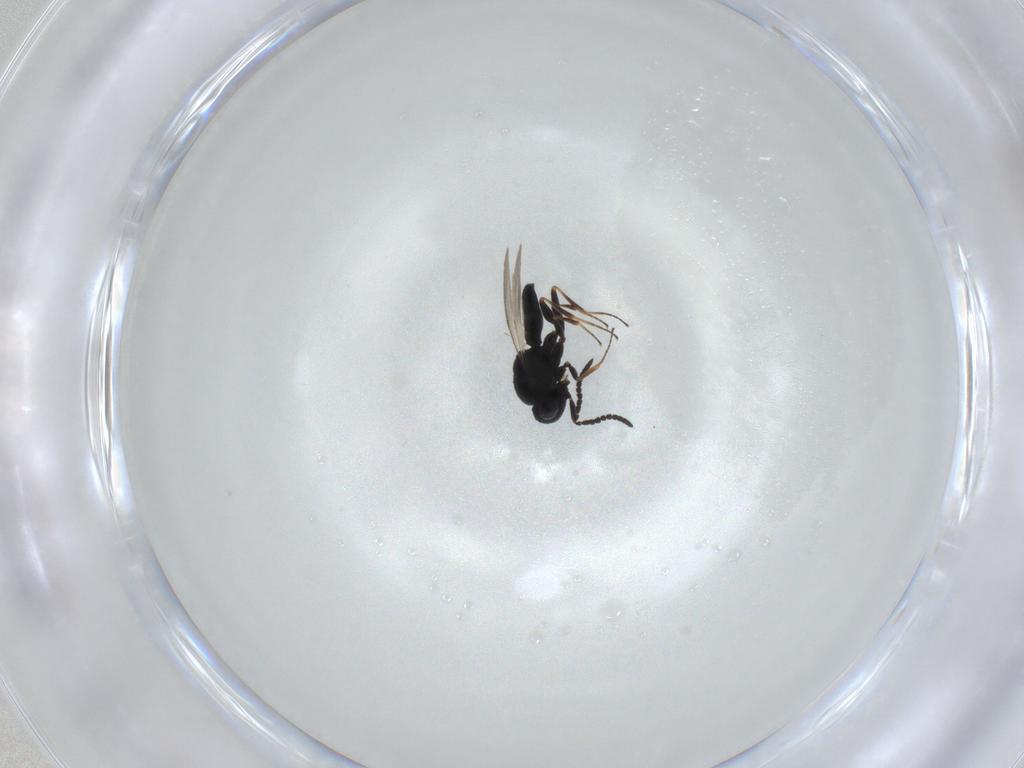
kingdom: Animalia
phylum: Arthropoda
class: Insecta
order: Hymenoptera
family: Scelionidae
